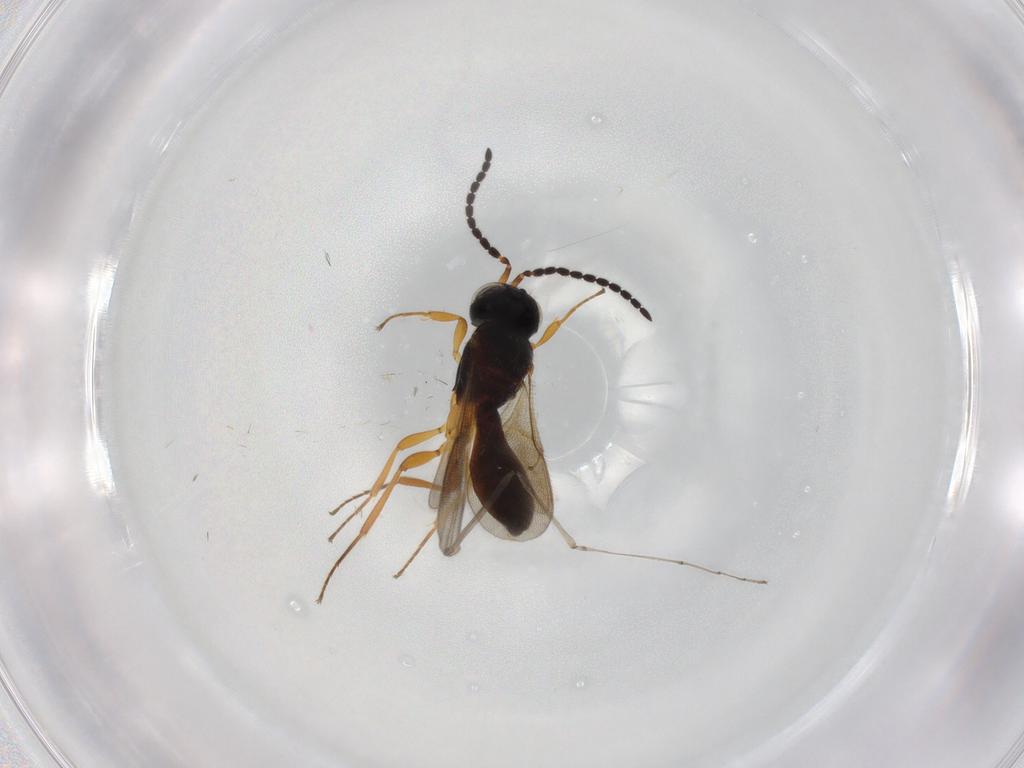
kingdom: Animalia
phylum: Arthropoda
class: Insecta
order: Hymenoptera
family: Scelionidae
